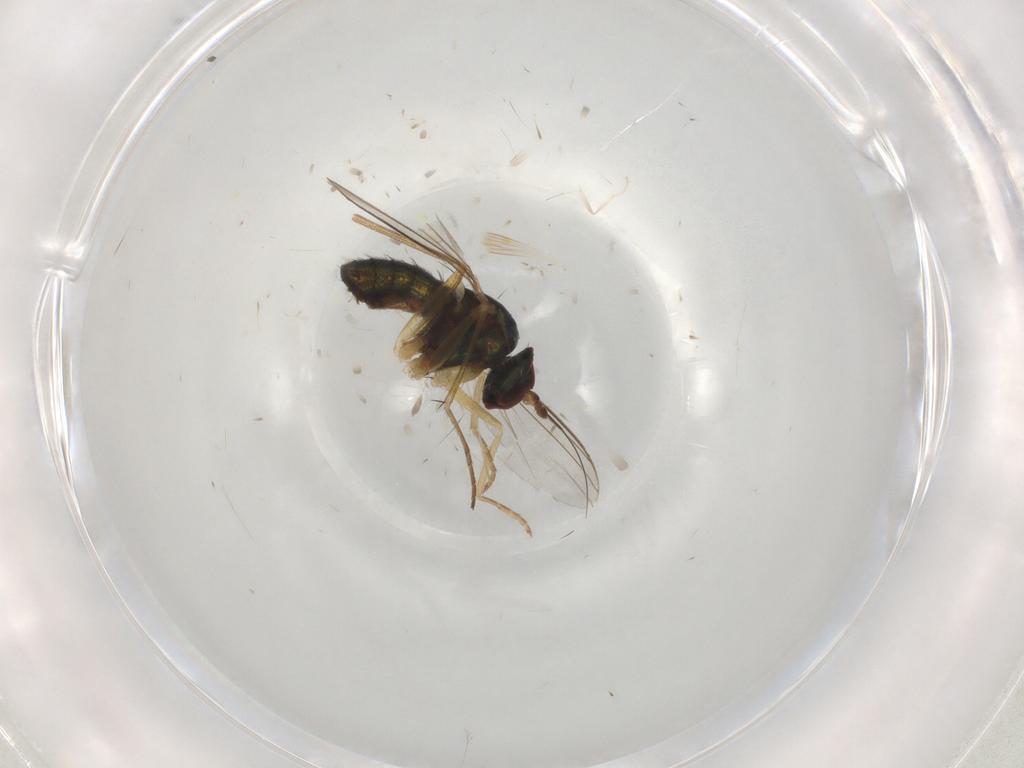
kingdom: Animalia
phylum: Arthropoda
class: Insecta
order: Diptera
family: Dolichopodidae
